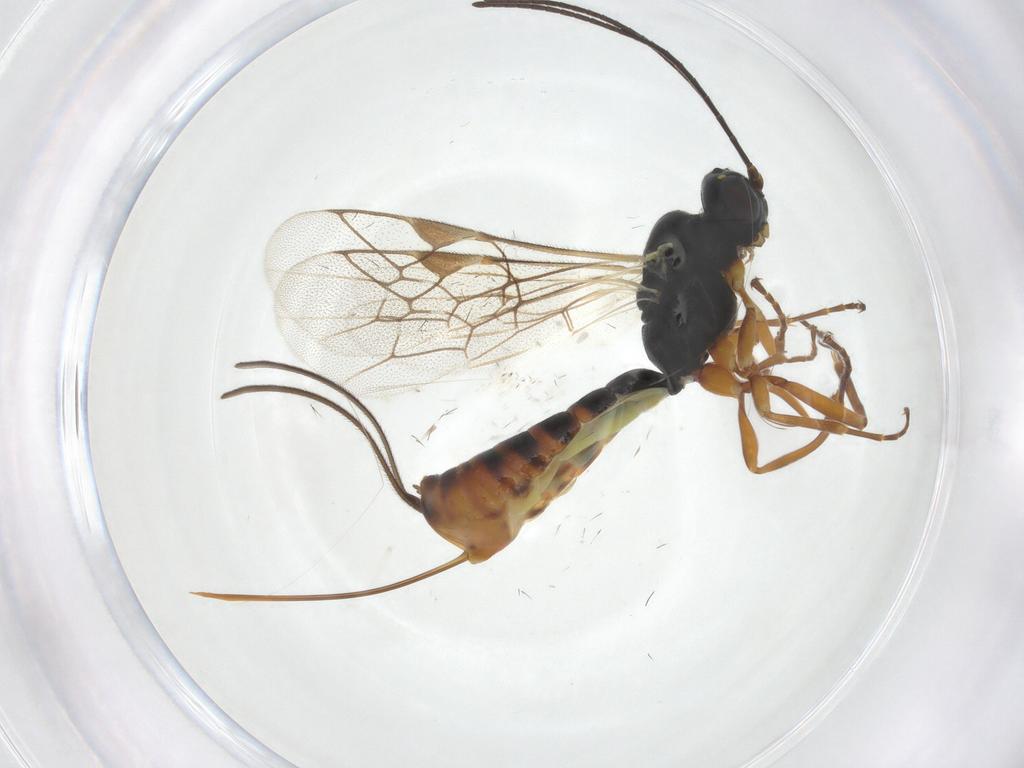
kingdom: Animalia
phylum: Arthropoda
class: Insecta
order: Hymenoptera
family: Ichneumonidae
